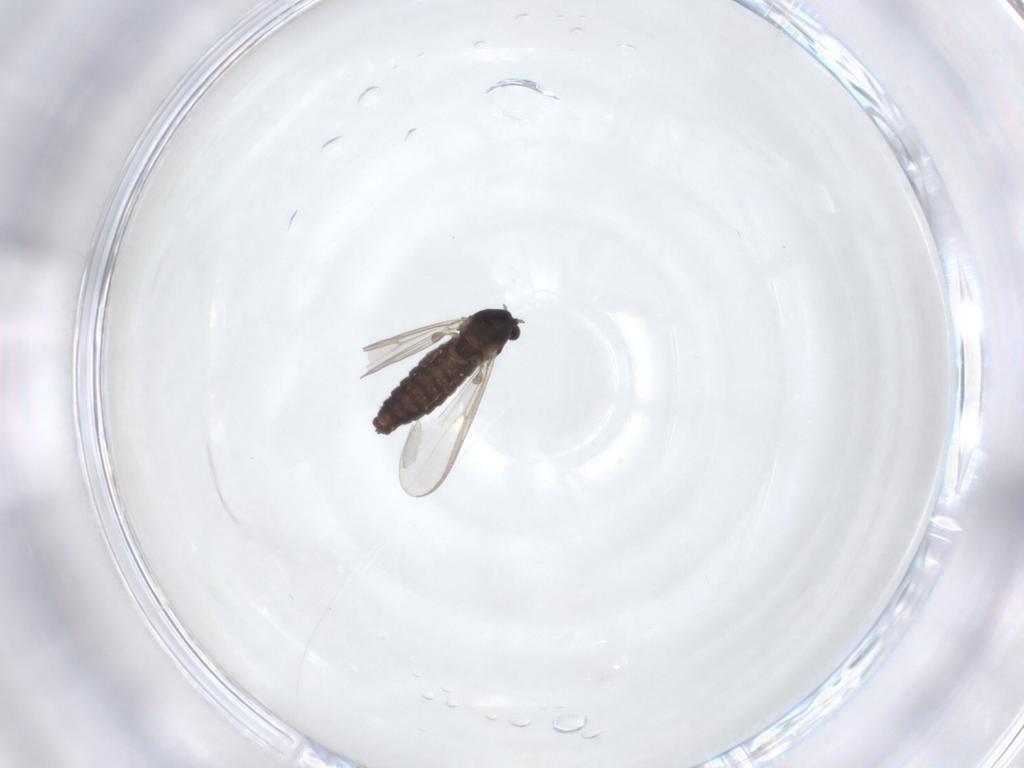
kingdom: Animalia
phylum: Arthropoda
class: Insecta
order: Diptera
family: Chironomidae
